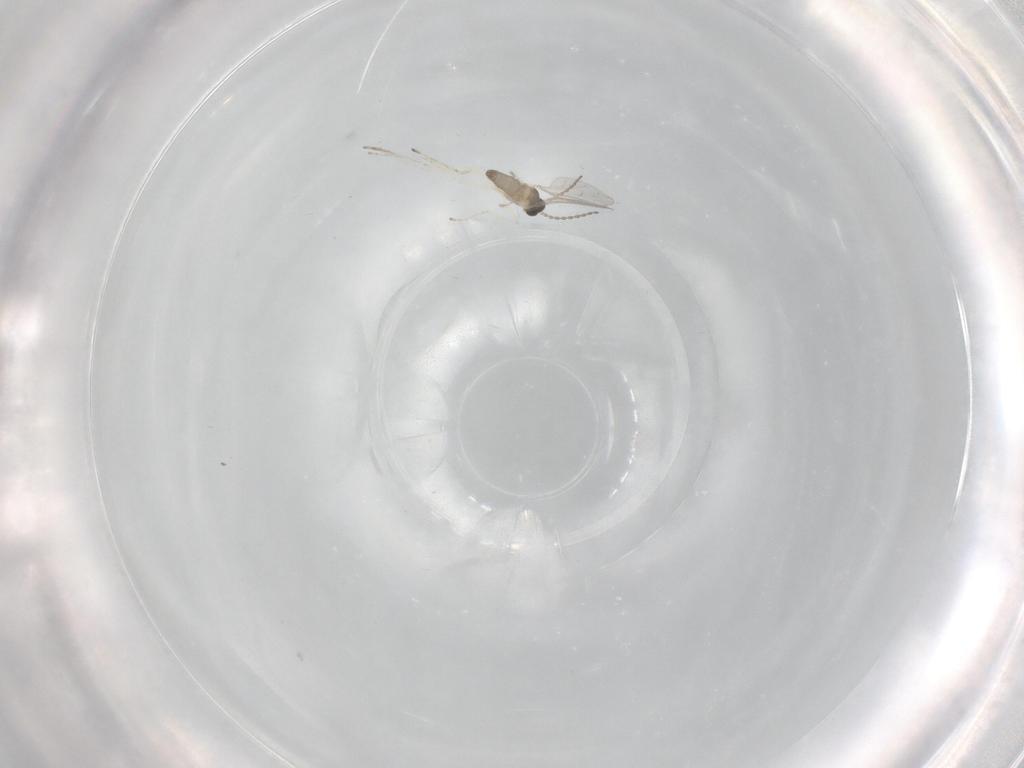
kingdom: Animalia
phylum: Arthropoda
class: Insecta
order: Diptera
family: Cecidomyiidae
